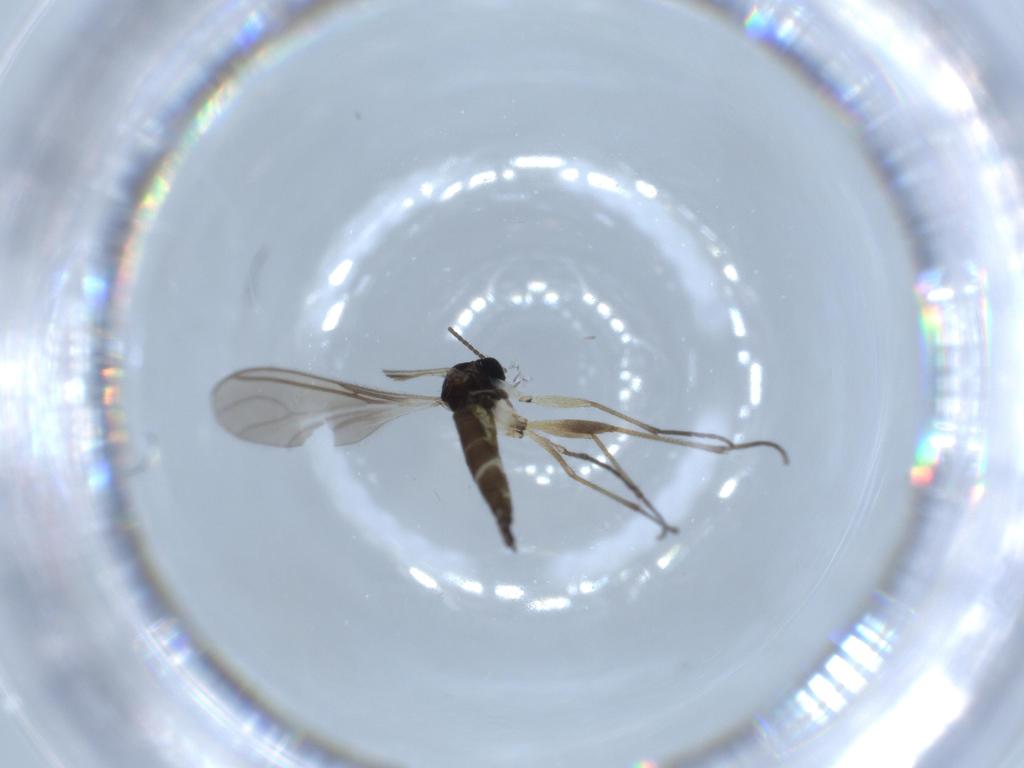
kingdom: Animalia
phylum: Arthropoda
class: Insecta
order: Diptera
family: Sciaridae
